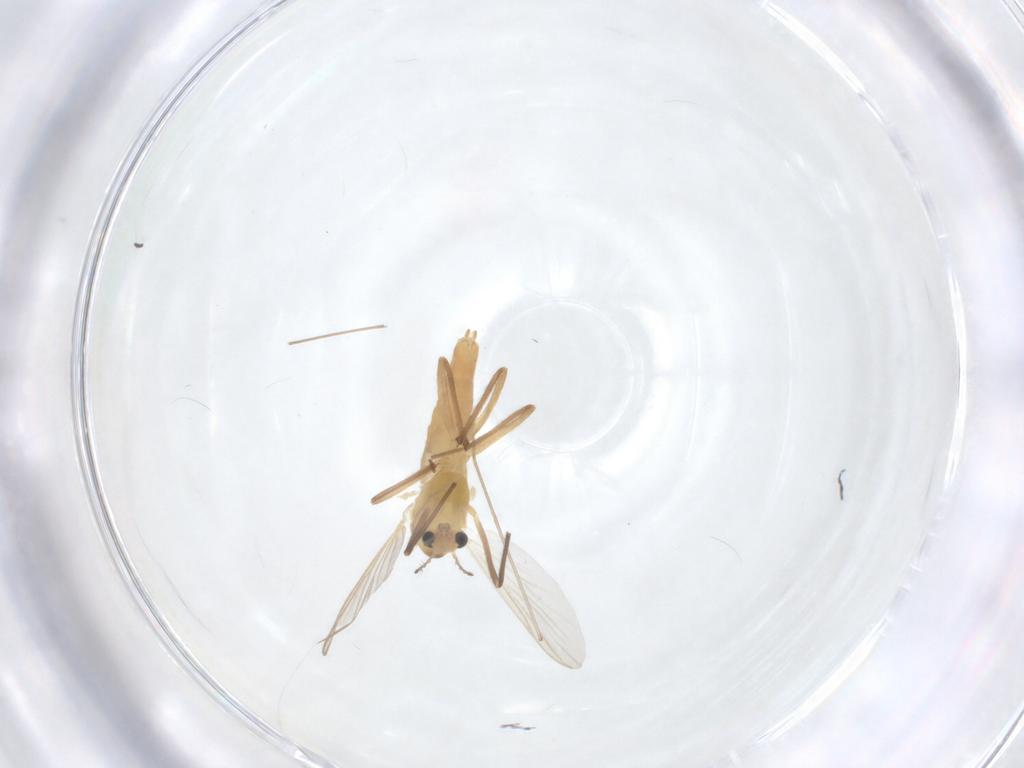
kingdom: Animalia
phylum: Arthropoda
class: Insecta
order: Diptera
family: Chironomidae
